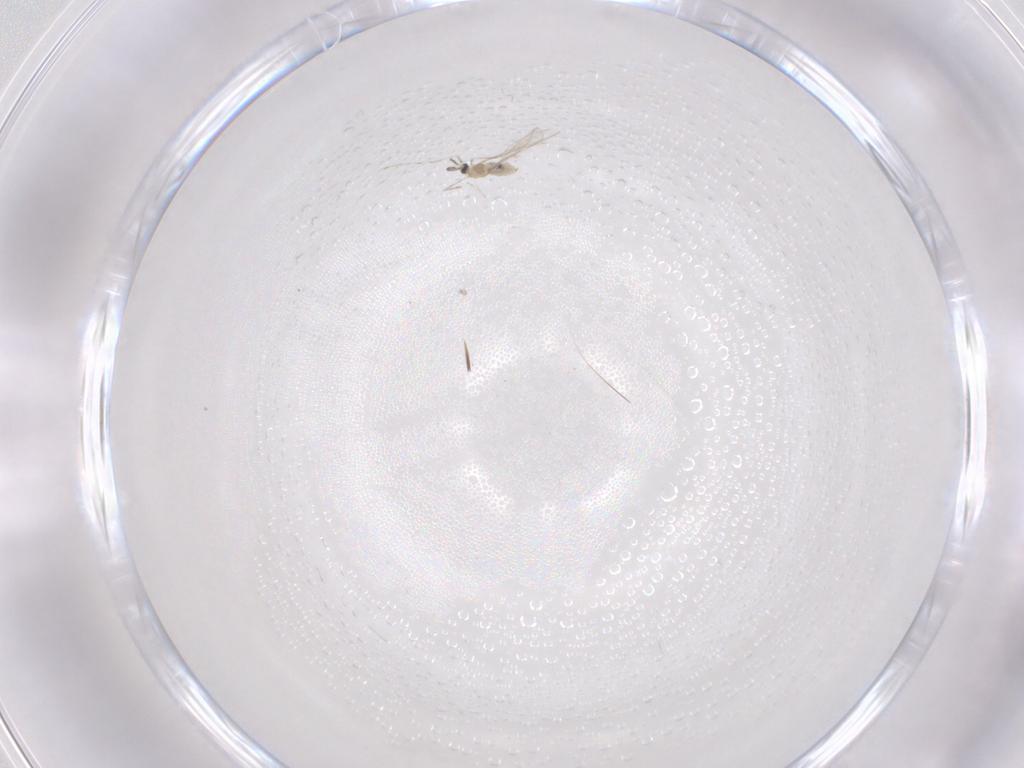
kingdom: Animalia
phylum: Arthropoda
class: Insecta
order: Diptera
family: Cecidomyiidae
